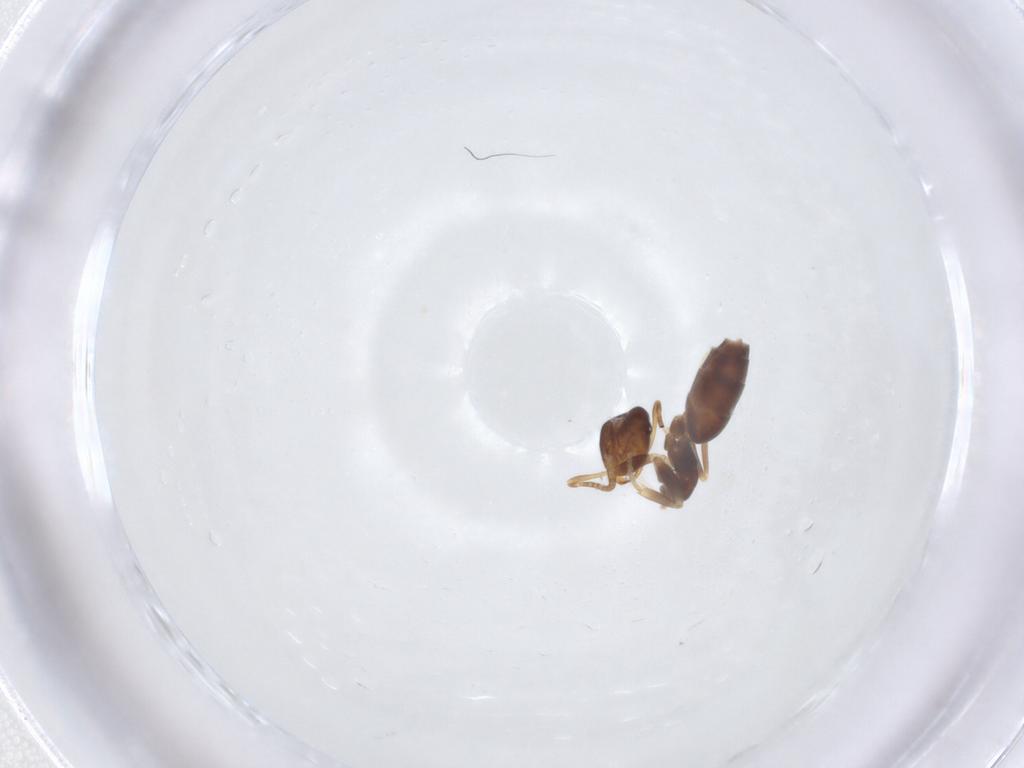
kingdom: Animalia
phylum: Arthropoda
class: Insecta
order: Hymenoptera
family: Formicidae
